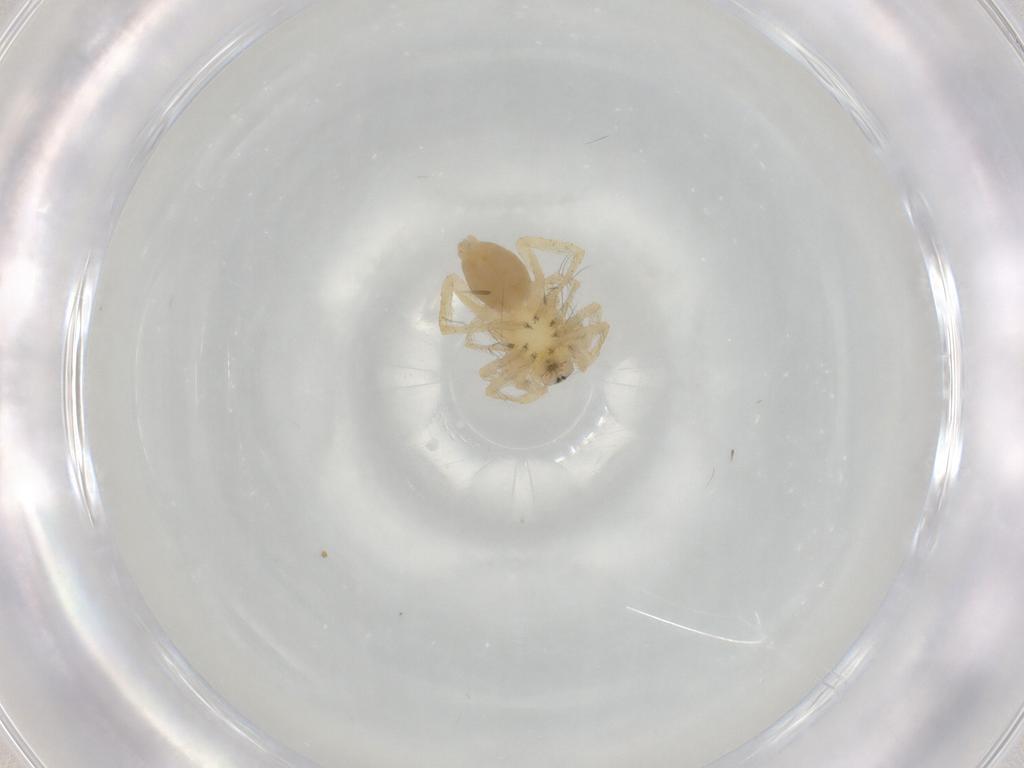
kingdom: Animalia
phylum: Arthropoda
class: Arachnida
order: Araneae
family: Anyphaenidae
